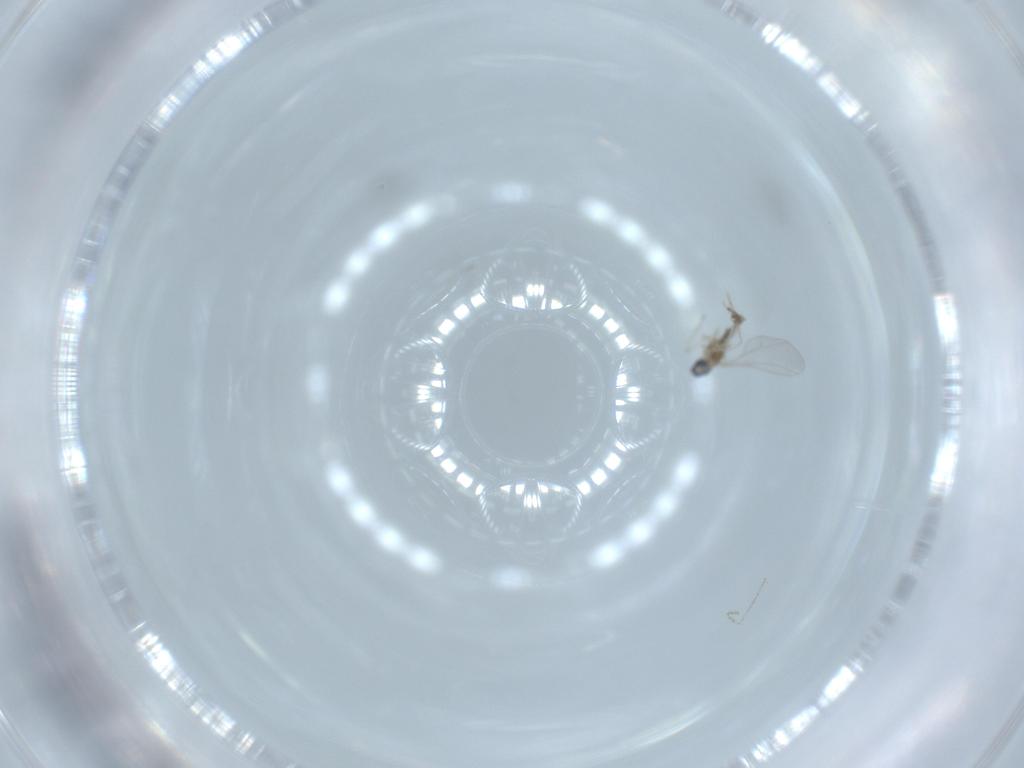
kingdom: Animalia
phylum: Arthropoda
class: Insecta
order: Diptera
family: Cecidomyiidae
